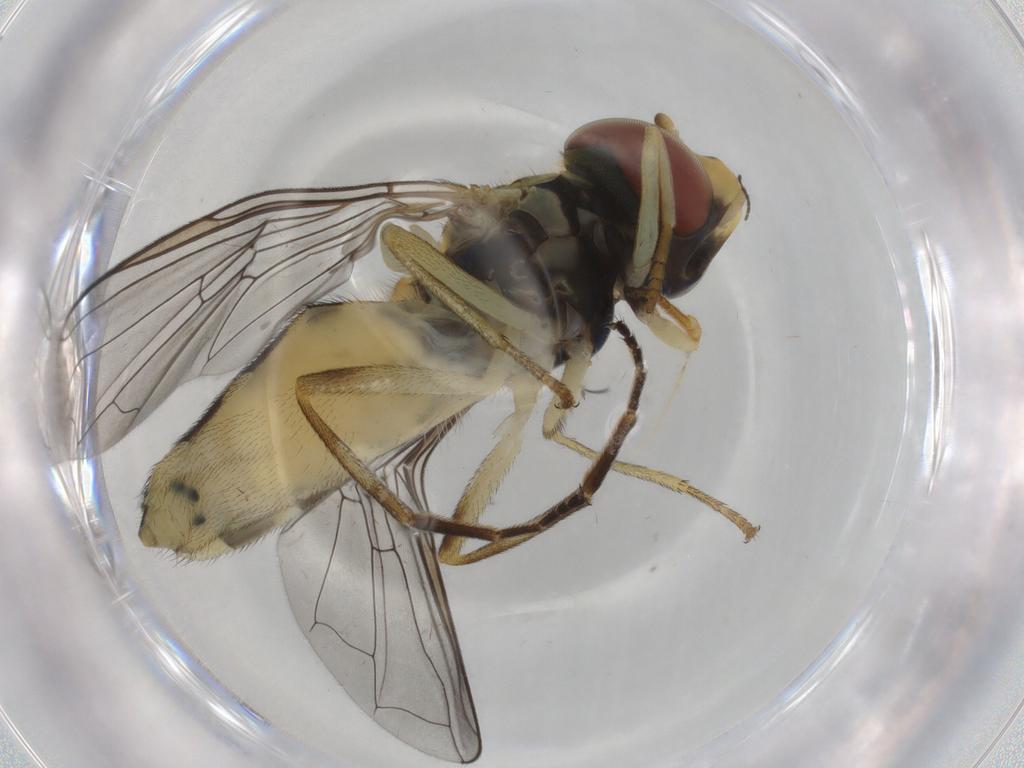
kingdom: Animalia
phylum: Arthropoda
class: Insecta
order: Diptera
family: Syrphidae
